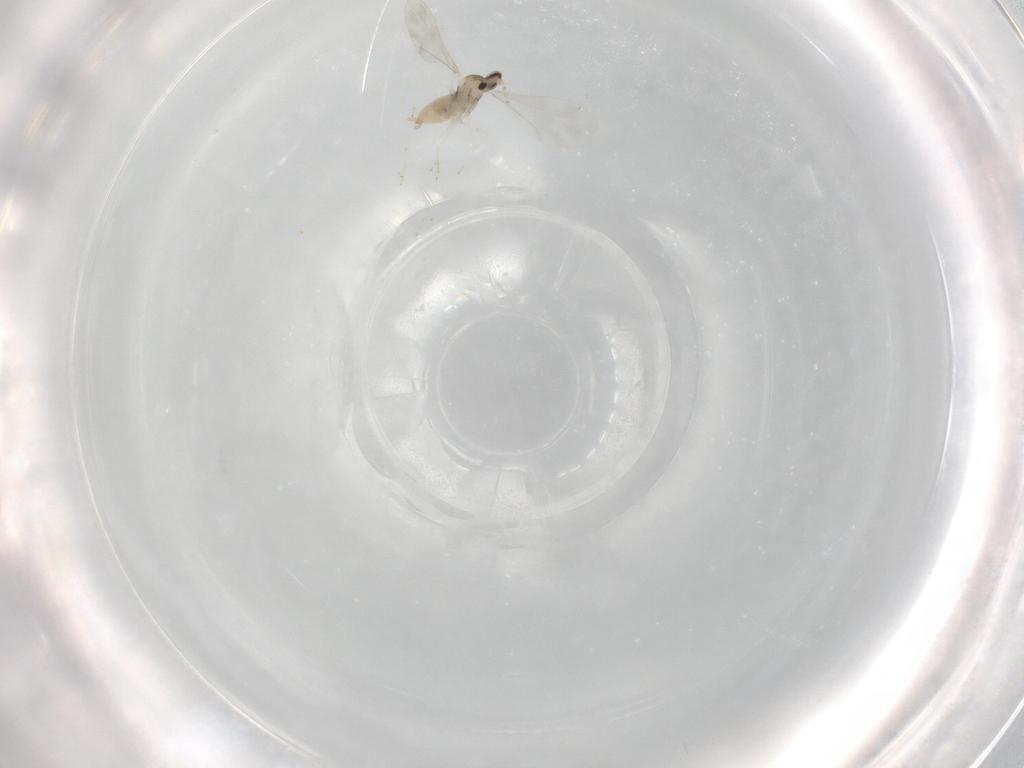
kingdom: Animalia
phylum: Arthropoda
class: Insecta
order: Diptera
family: Cecidomyiidae
